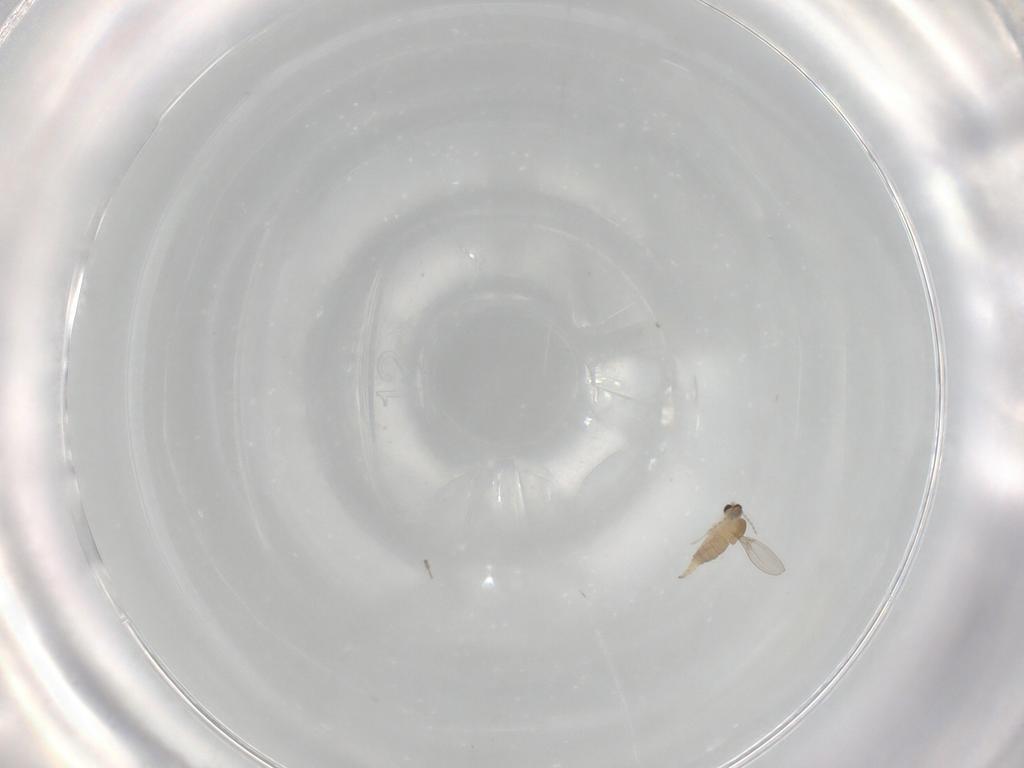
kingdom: Animalia
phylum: Arthropoda
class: Insecta
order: Diptera
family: Cecidomyiidae
